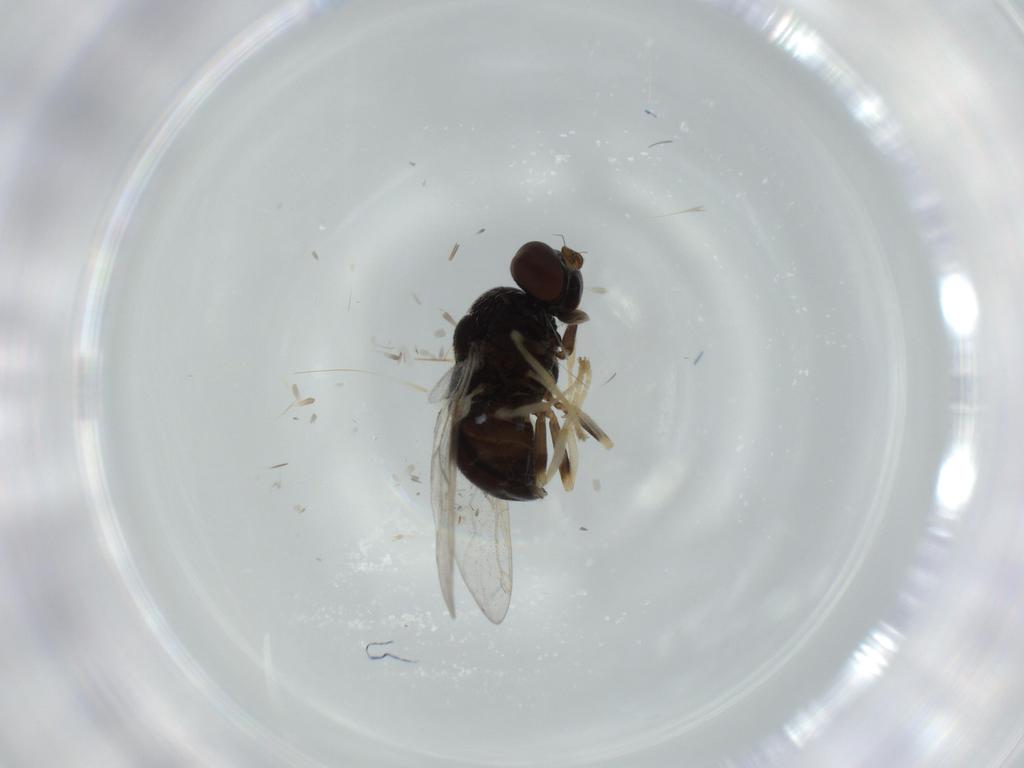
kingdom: Animalia
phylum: Arthropoda
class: Insecta
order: Diptera
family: Stratiomyidae
